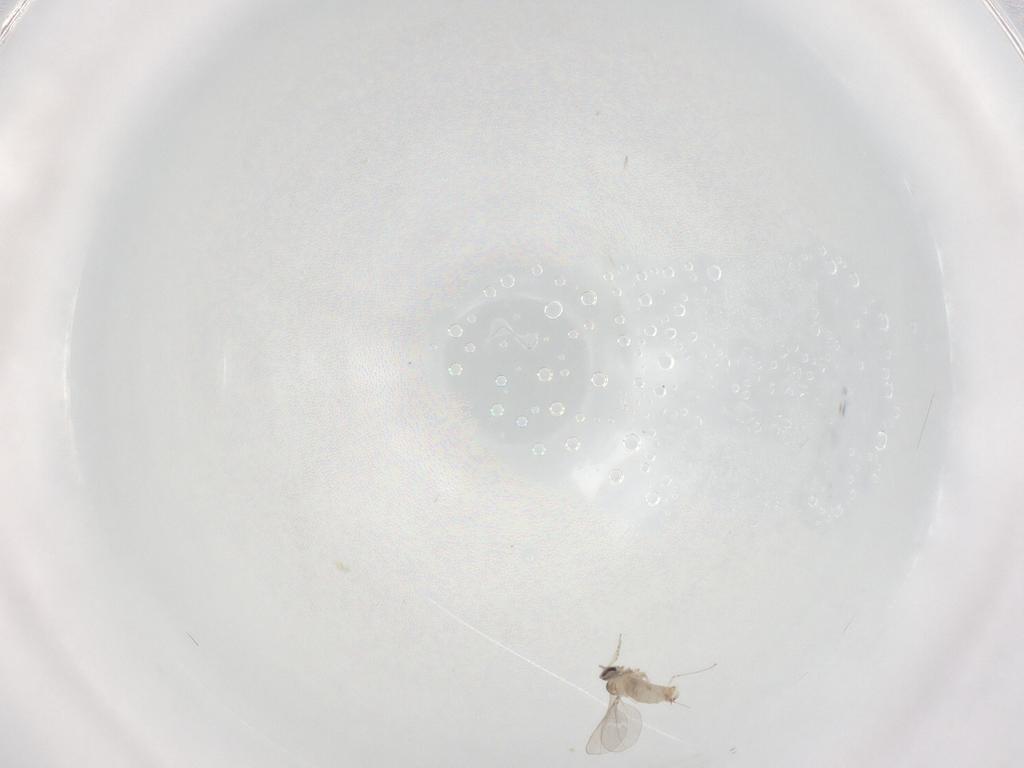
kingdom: Animalia
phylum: Arthropoda
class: Insecta
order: Diptera
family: Cecidomyiidae
